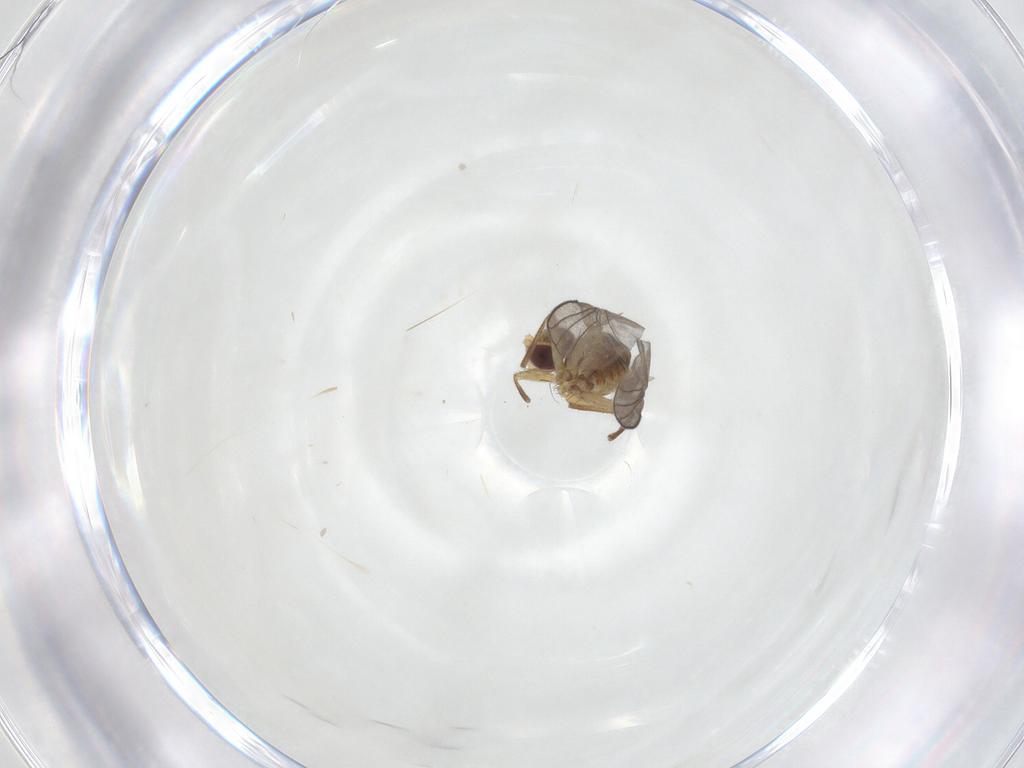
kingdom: Animalia
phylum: Arthropoda
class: Insecta
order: Diptera
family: Agromyzidae
